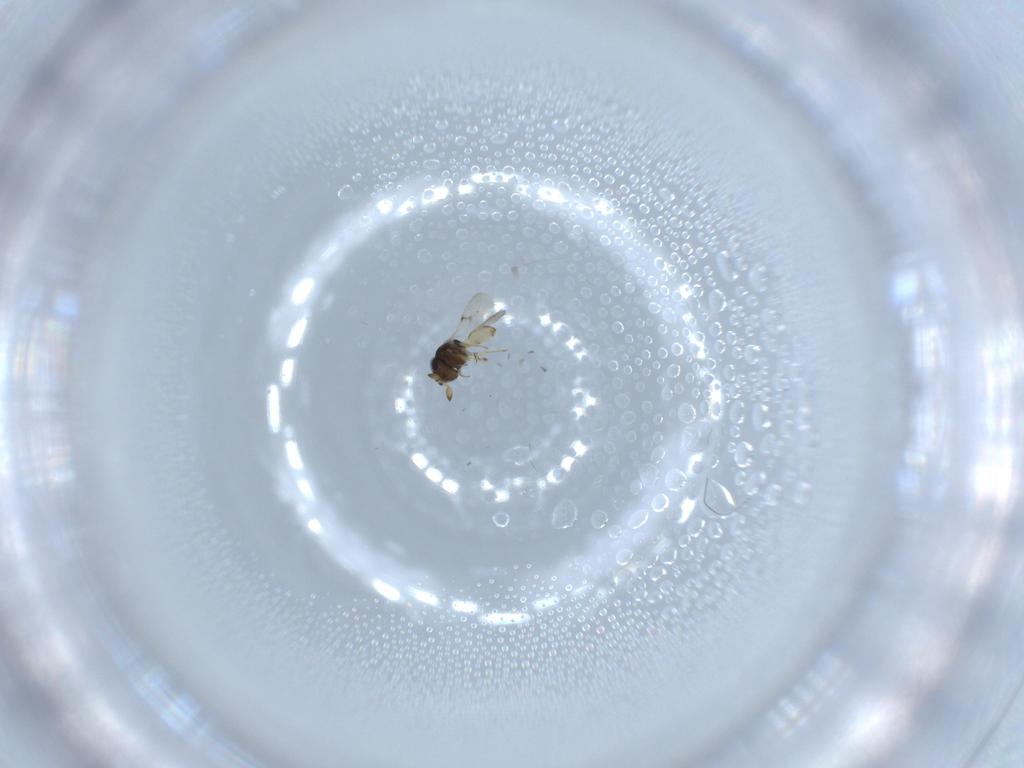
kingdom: Animalia
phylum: Arthropoda
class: Insecta
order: Hymenoptera
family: Scelionidae
